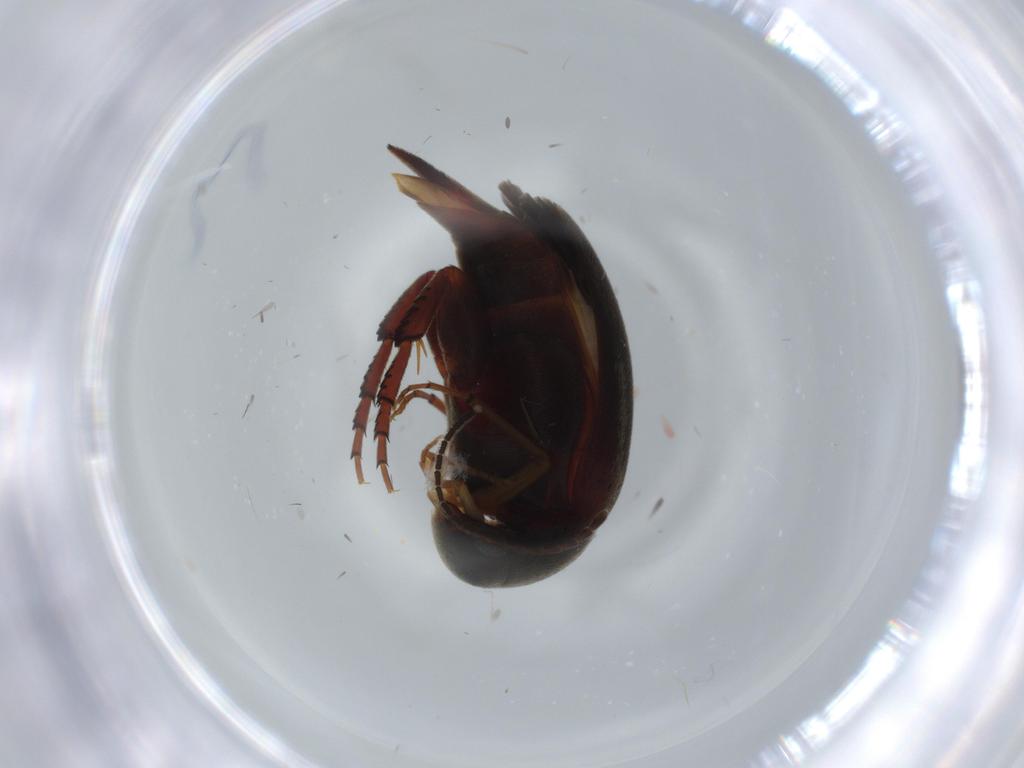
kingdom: Animalia
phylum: Arthropoda
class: Insecta
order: Coleoptera
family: Mordellidae
